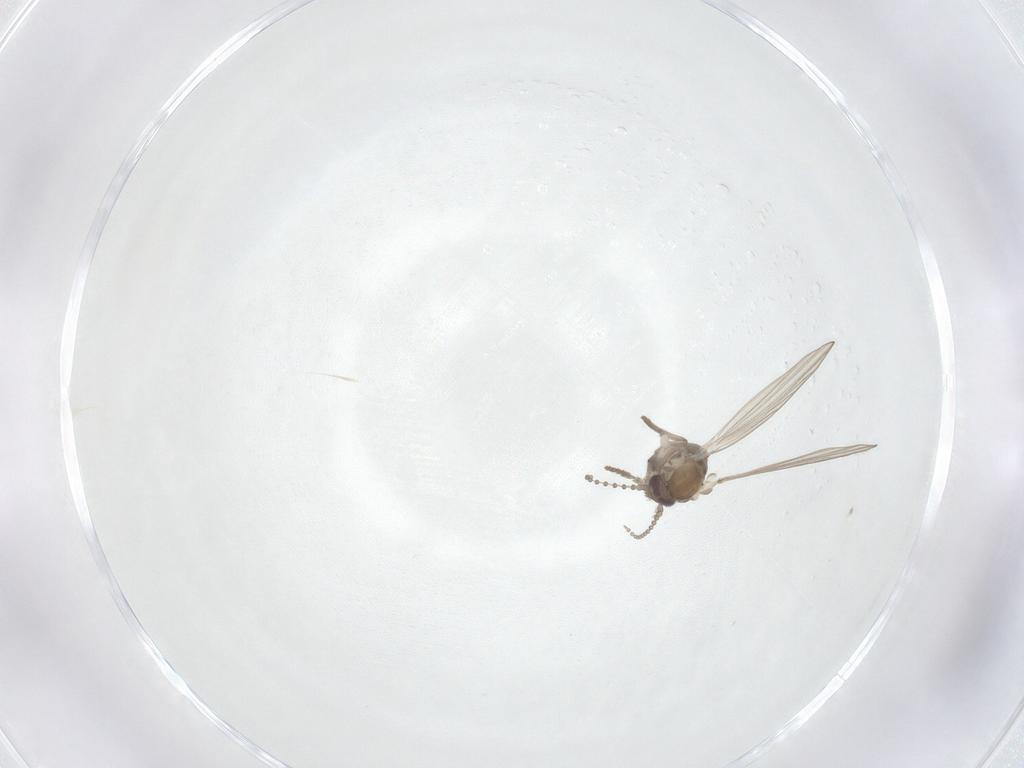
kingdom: Animalia
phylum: Arthropoda
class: Insecta
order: Diptera
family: Psychodidae
